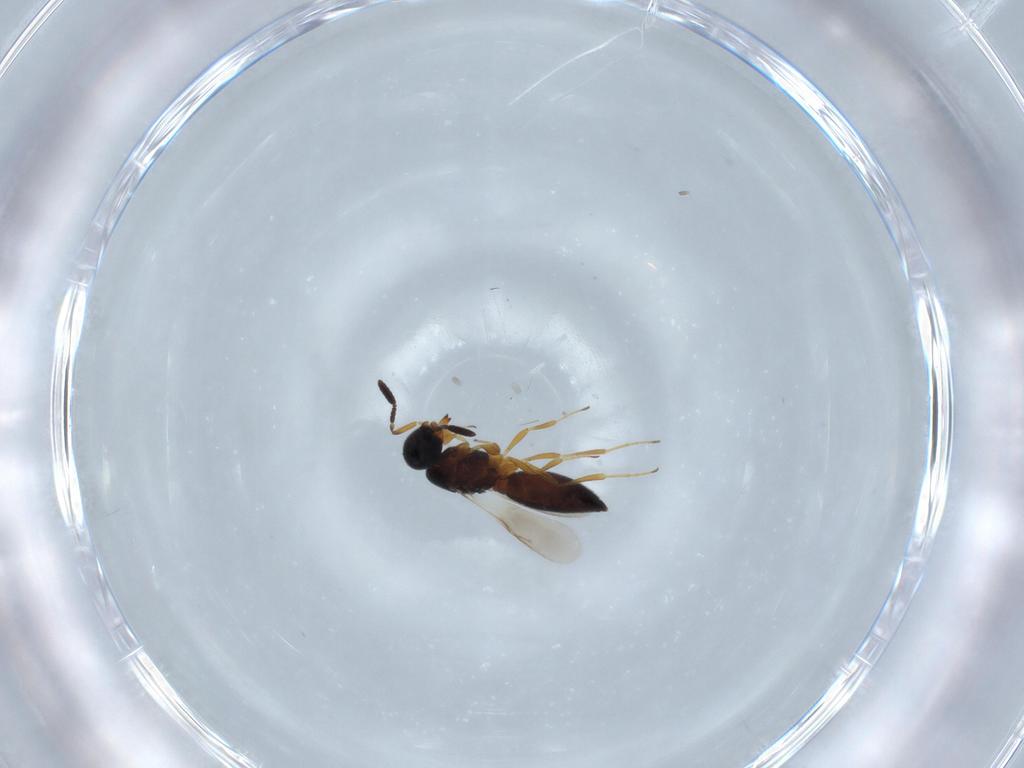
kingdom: Animalia
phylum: Arthropoda
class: Insecta
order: Hymenoptera
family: Scelionidae
